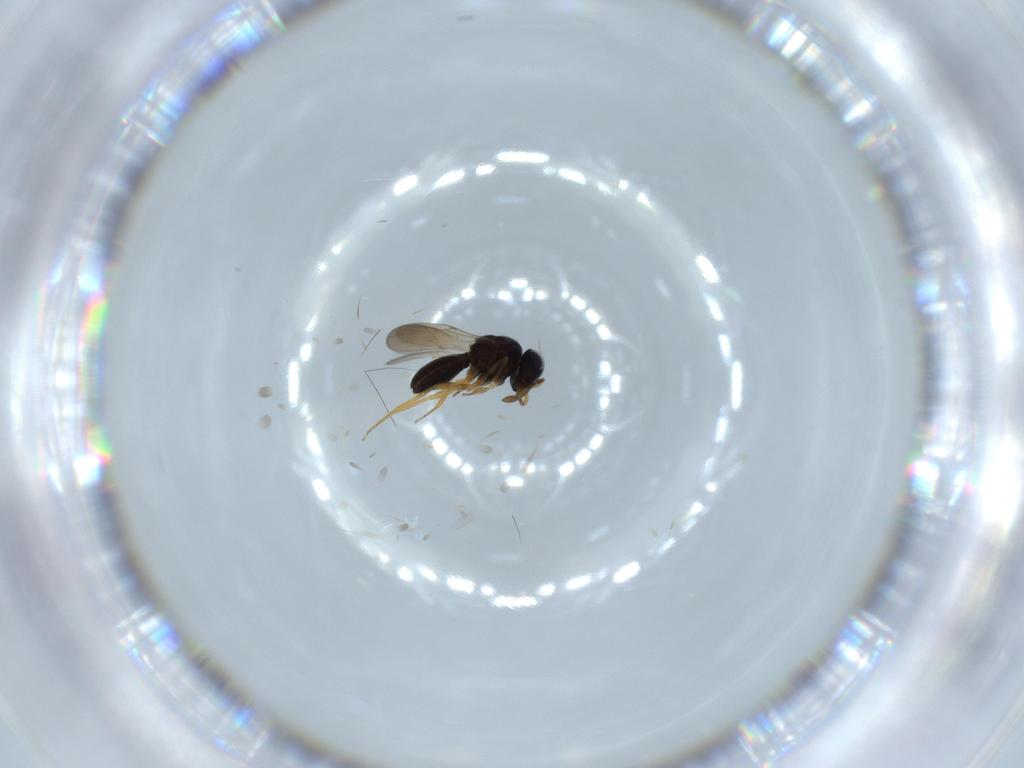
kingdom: Animalia
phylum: Arthropoda
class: Insecta
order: Hymenoptera
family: Scelionidae
